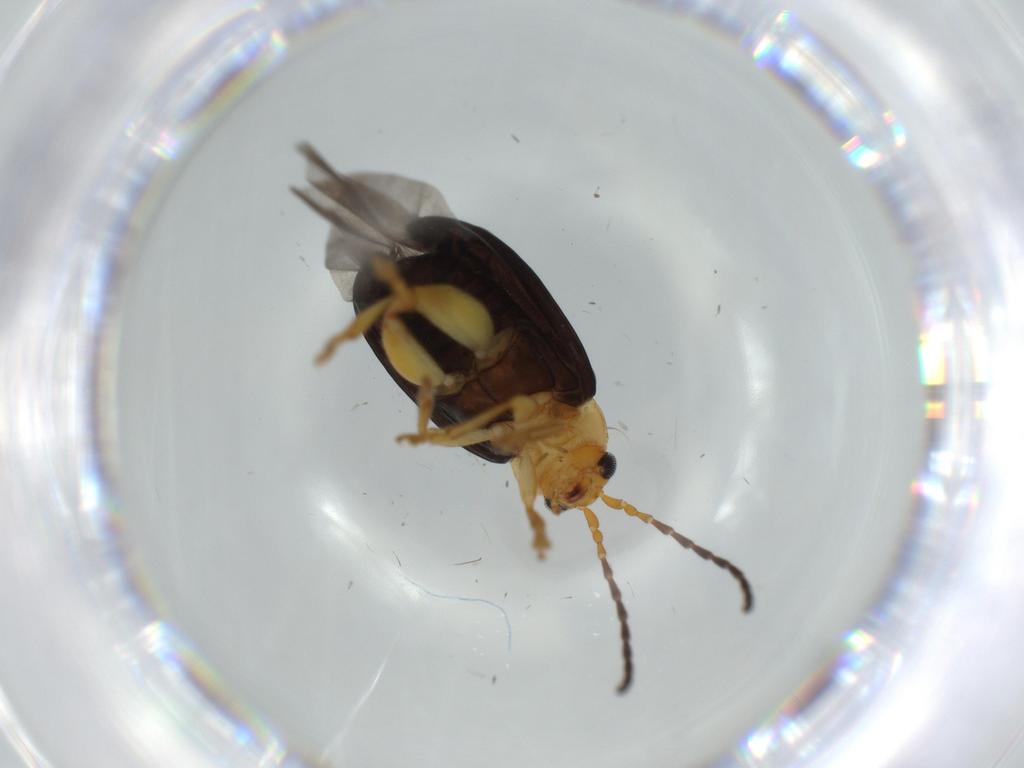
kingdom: Animalia
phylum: Arthropoda
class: Insecta
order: Coleoptera
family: Chrysomelidae
